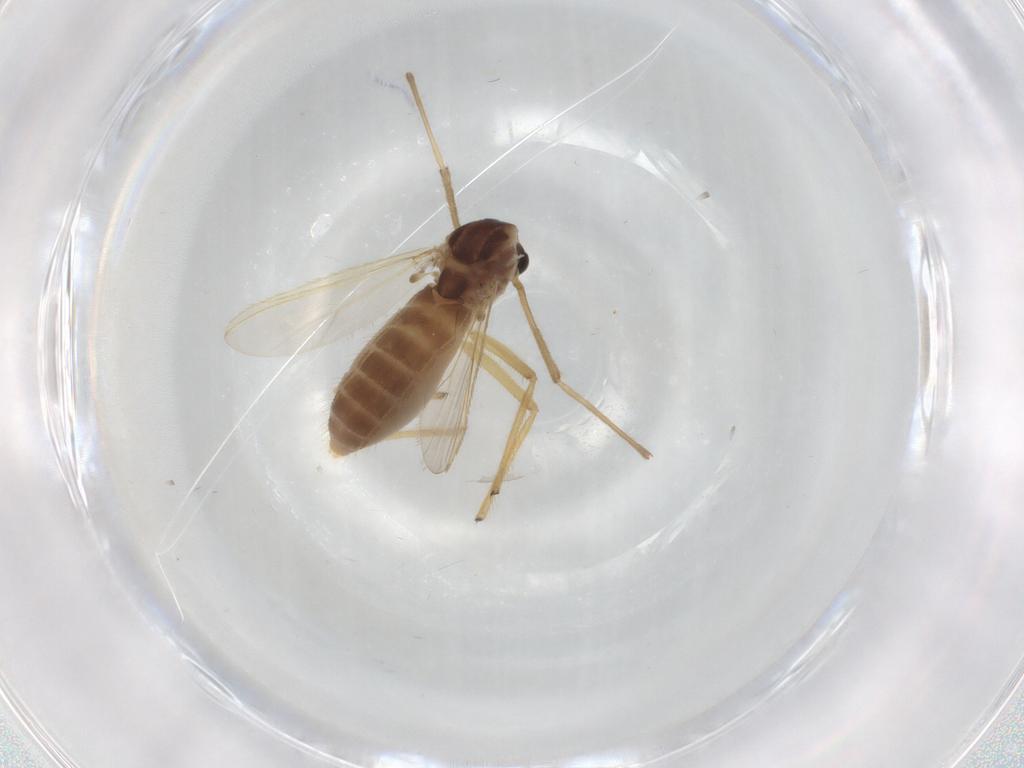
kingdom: Animalia
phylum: Arthropoda
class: Insecta
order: Diptera
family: Chironomidae
